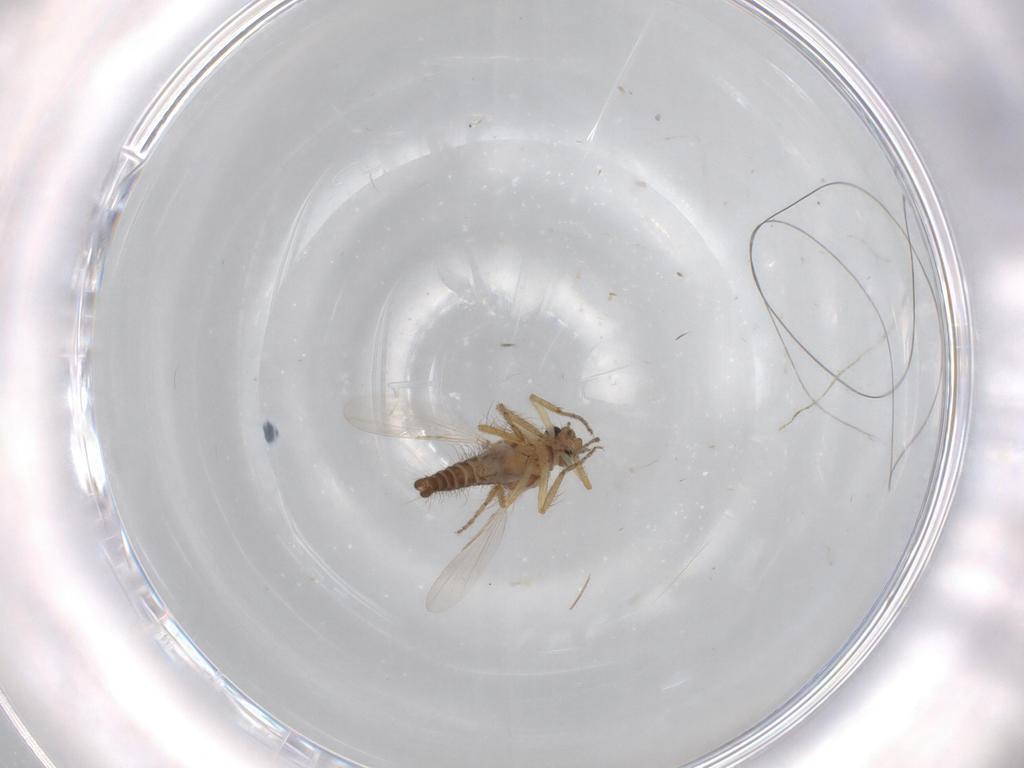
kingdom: Animalia
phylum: Arthropoda
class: Insecta
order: Diptera
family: Ceratopogonidae
